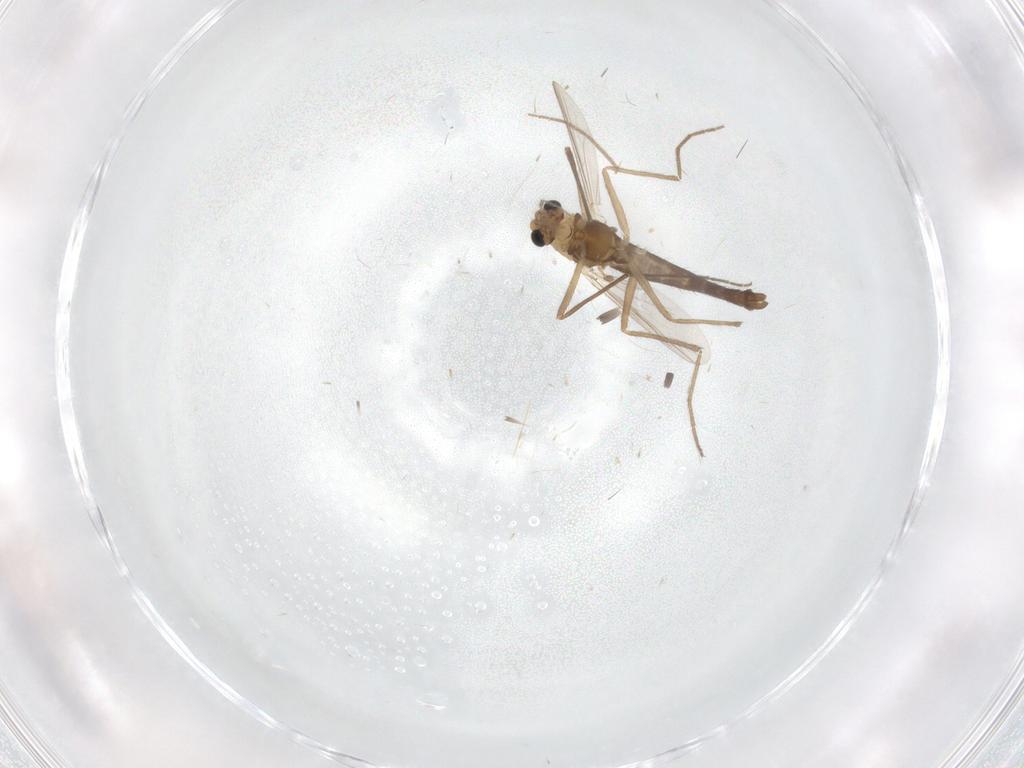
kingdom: Animalia
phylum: Arthropoda
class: Insecta
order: Diptera
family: Chironomidae
